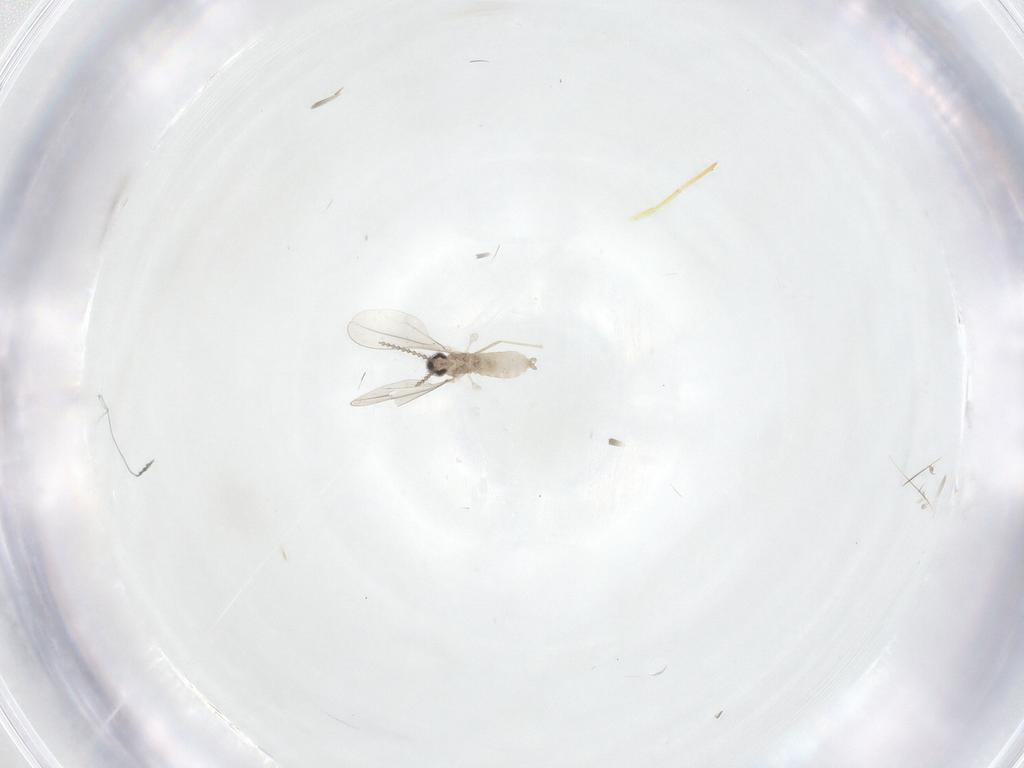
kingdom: Animalia
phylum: Arthropoda
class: Insecta
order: Diptera
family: Cecidomyiidae
